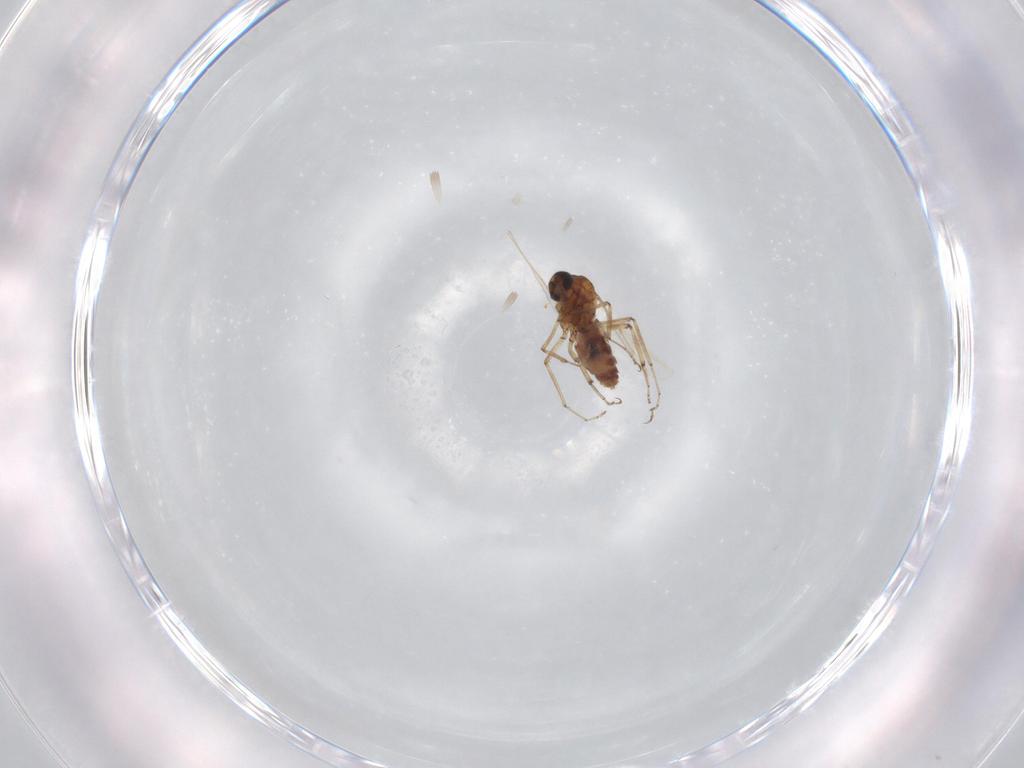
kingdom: Animalia
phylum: Arthropoda
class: Insecta
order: Diptera
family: Ceratopogonidae
